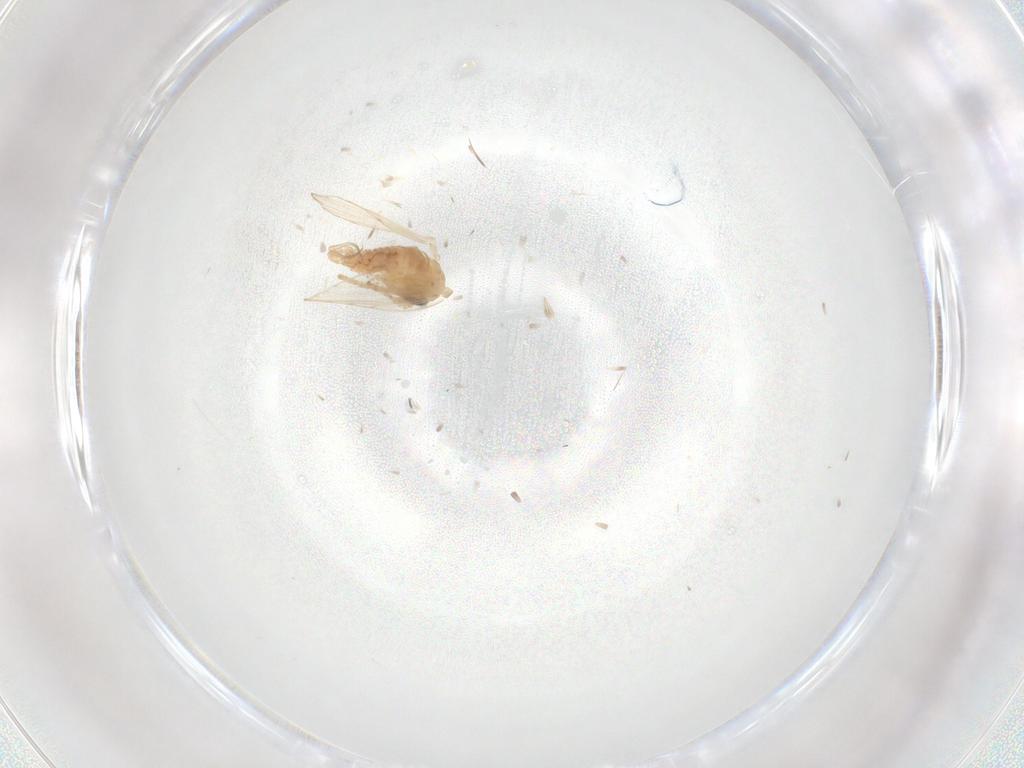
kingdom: Animalia
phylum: Arthropoda
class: Insecta
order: Diptera
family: Psychodidae
